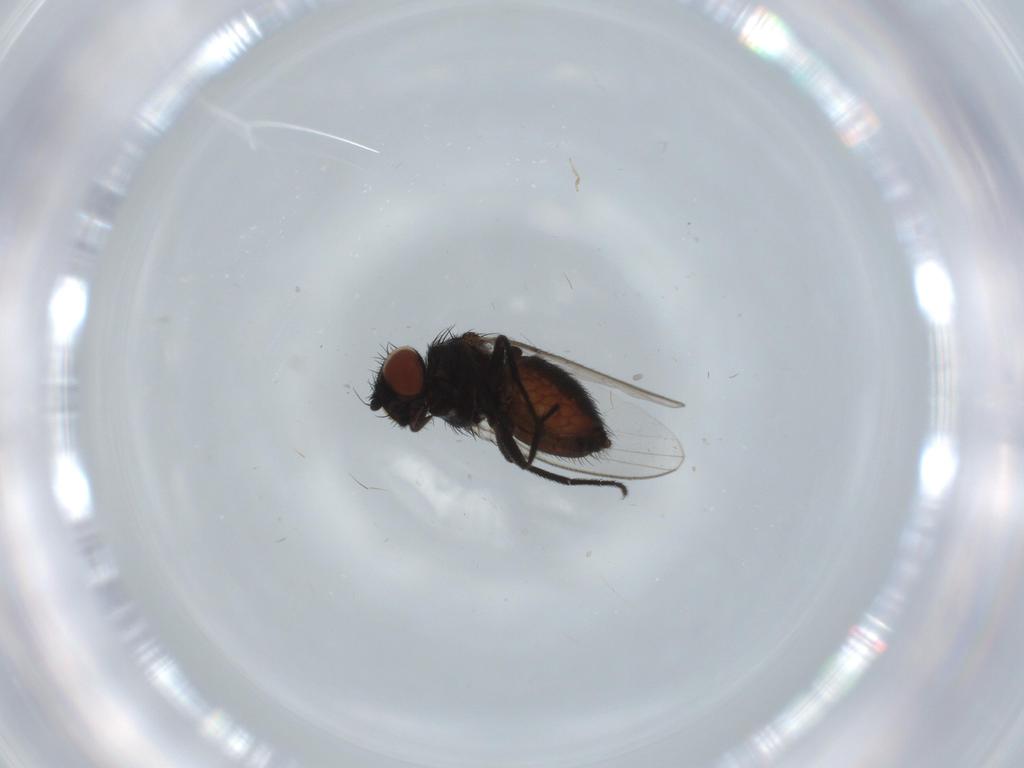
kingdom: Animalia
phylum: Arthropoda
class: Insecta
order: Diptera
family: Milichiidae
